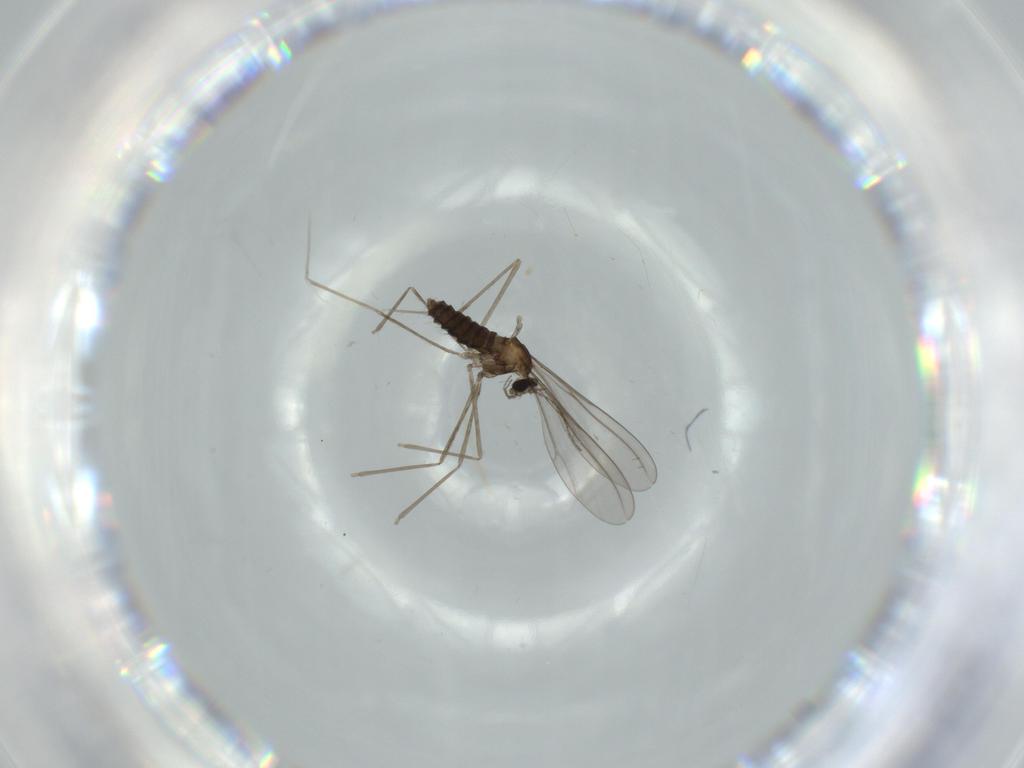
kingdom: Animalia
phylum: Arthropoda
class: Insecta
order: Diptera
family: Cecidomyiidae
